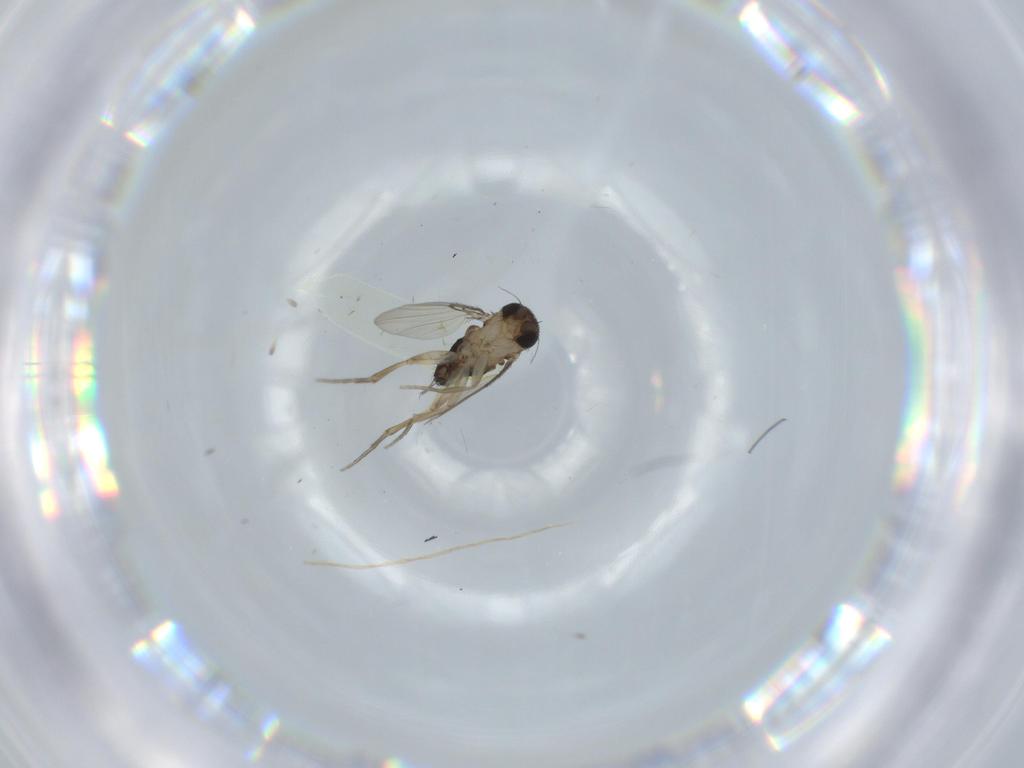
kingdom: Animalia
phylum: Arthropoda
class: Insecta
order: Diptera
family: Phoridae
